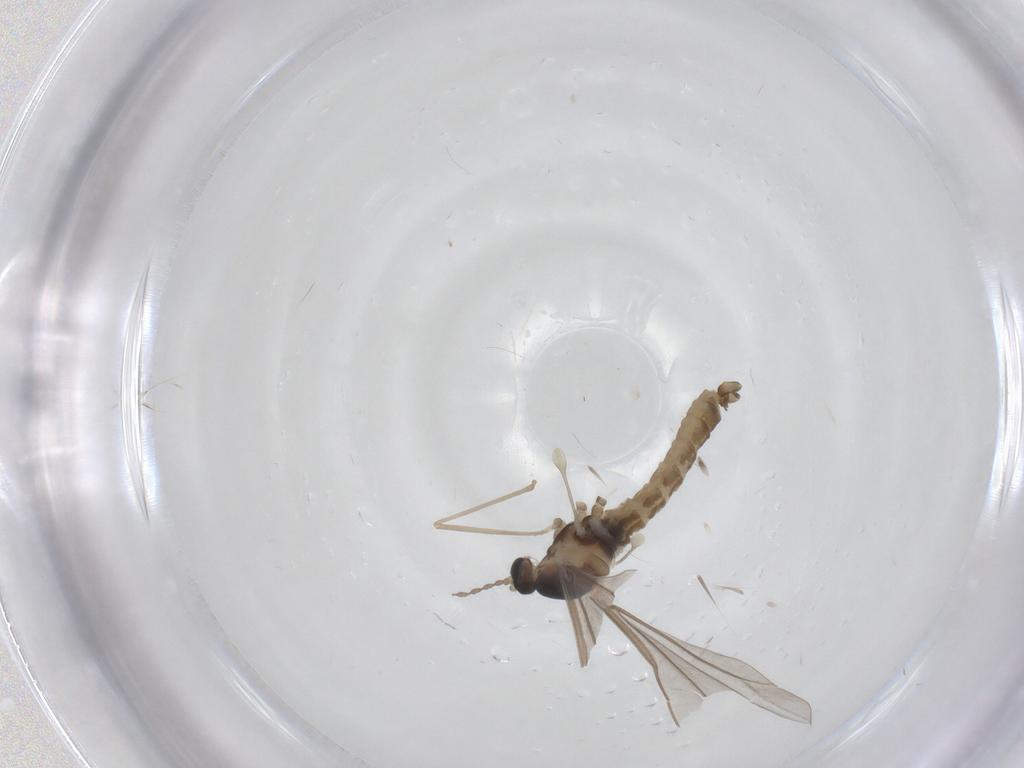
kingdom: Animalia
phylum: Arthropoda
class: Insecta
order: Diptera
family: Cecidomyiidae
